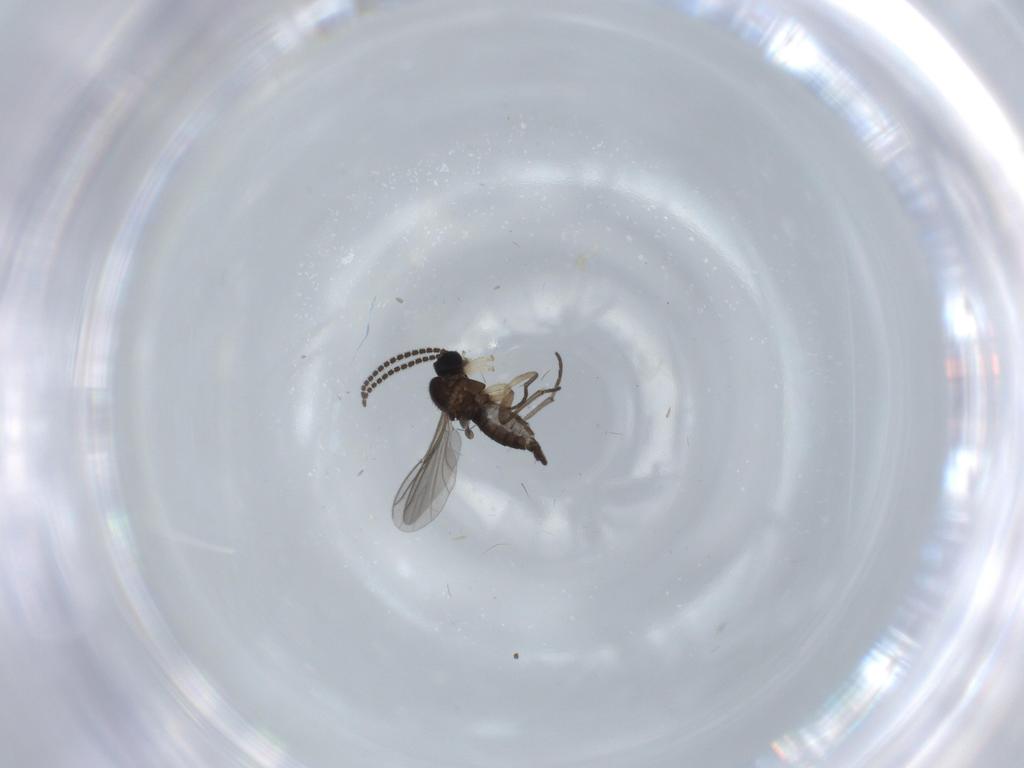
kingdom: Animalia
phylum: Arthropoda
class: Insecta
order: Diptera
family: Sciaridae
